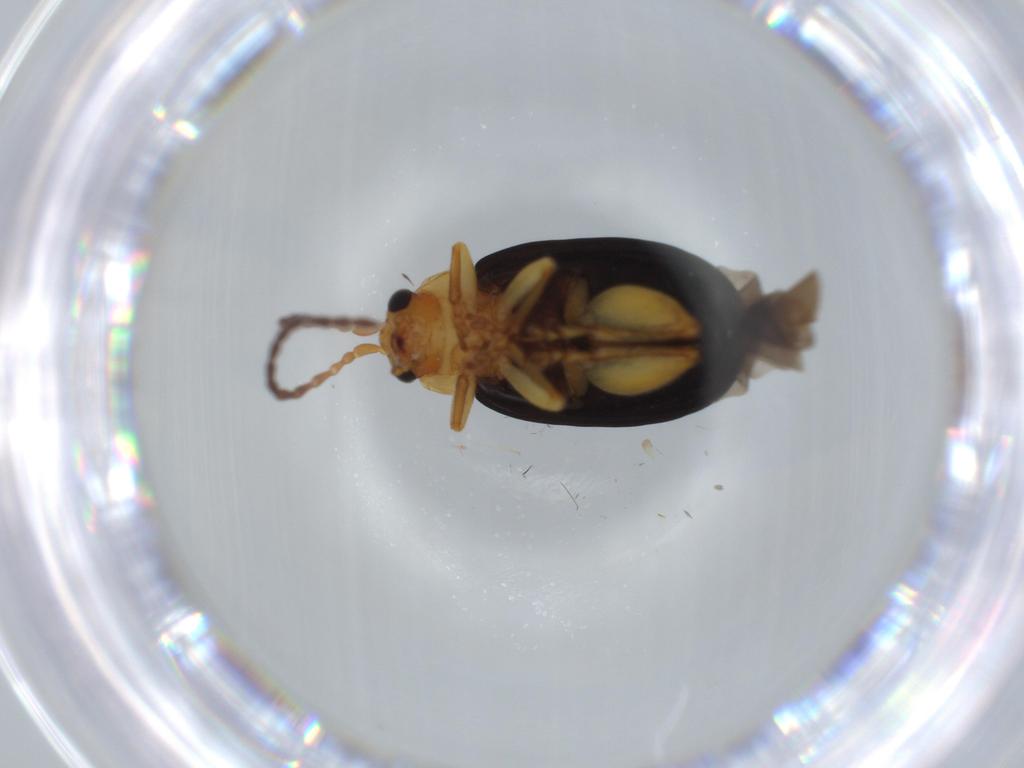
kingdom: Animalia
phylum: Arthropoda
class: Insecta
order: Coleoptera
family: Chrysomelidae
